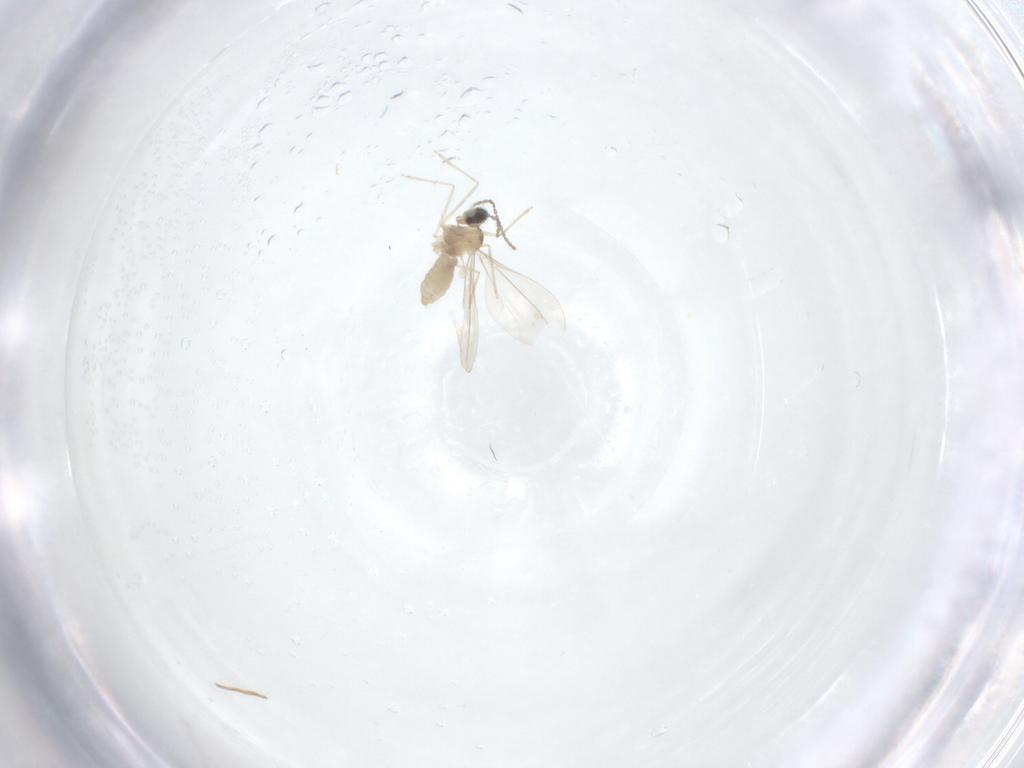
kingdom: Animalia
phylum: Arthropoda
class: Insecta
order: Diptera
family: Cecidomyiidae
